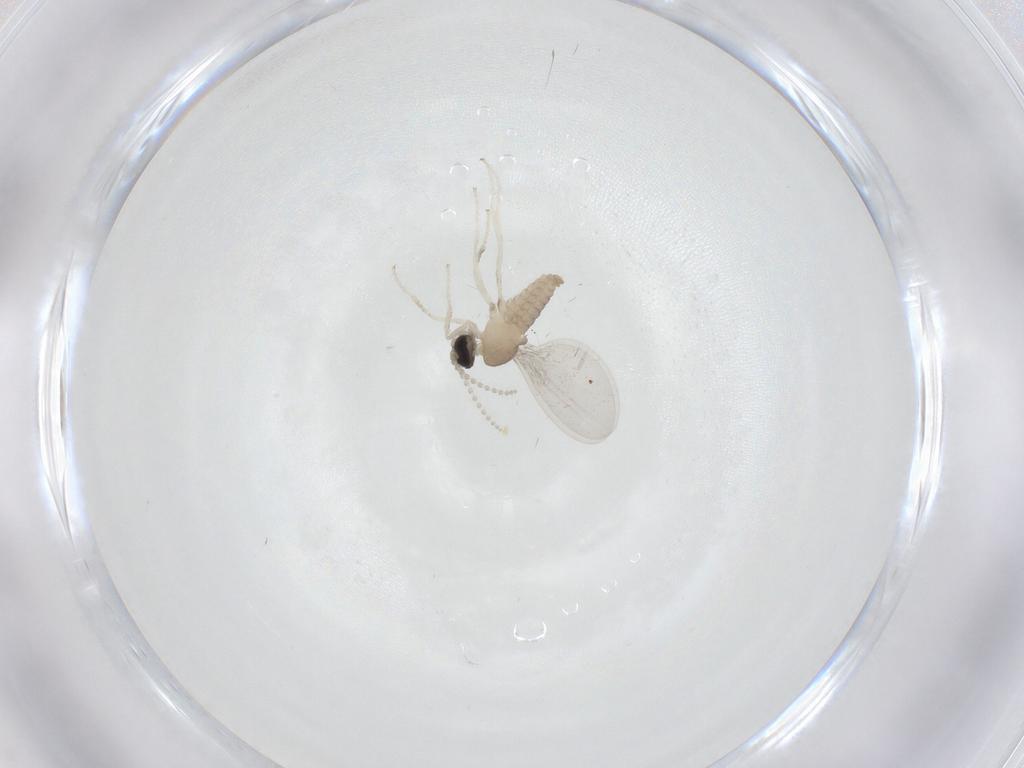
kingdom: Animalia
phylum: Arthropoda
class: Insecta
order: Diptera
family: Cecidomyiidae
